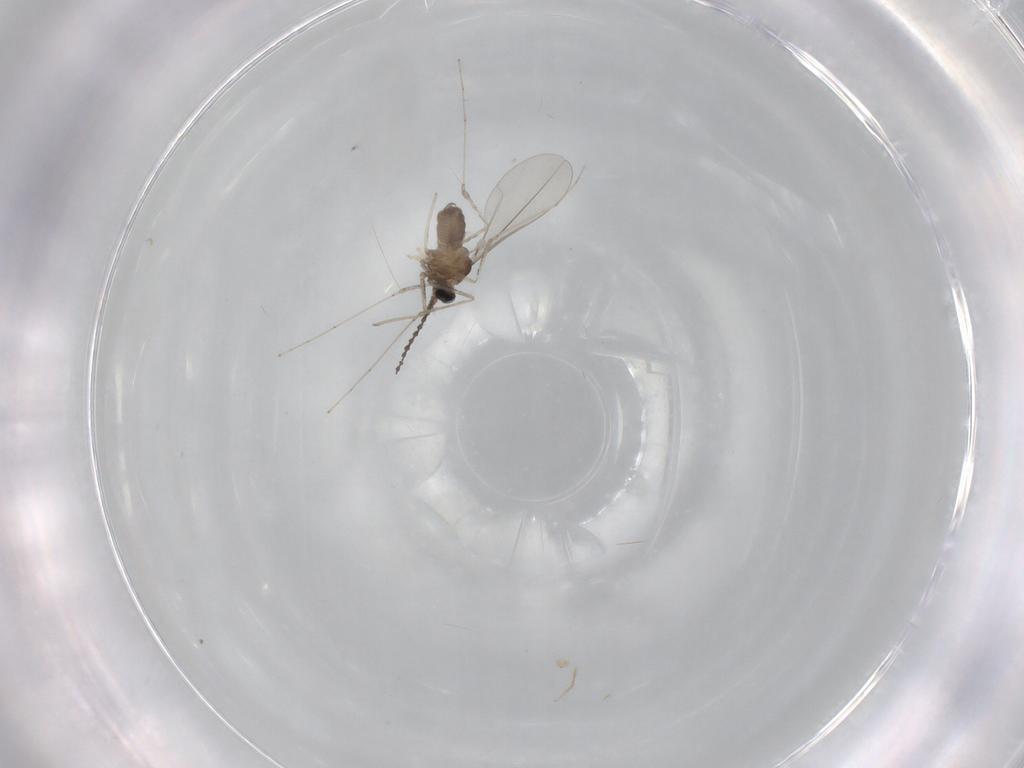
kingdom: Animalia
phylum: Arthropoda
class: Insecta
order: Diptera
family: Cecidomyiidae
